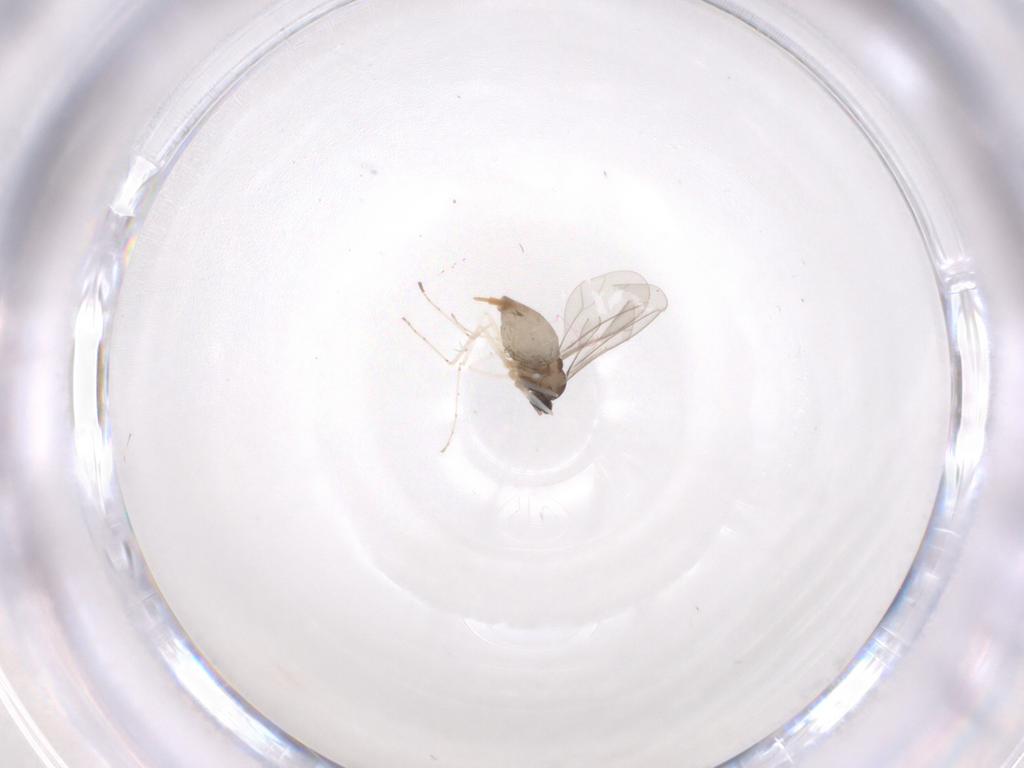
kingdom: Animalia
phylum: Arthropoda
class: Insecta
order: Diptera
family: Cecidomyiidae
